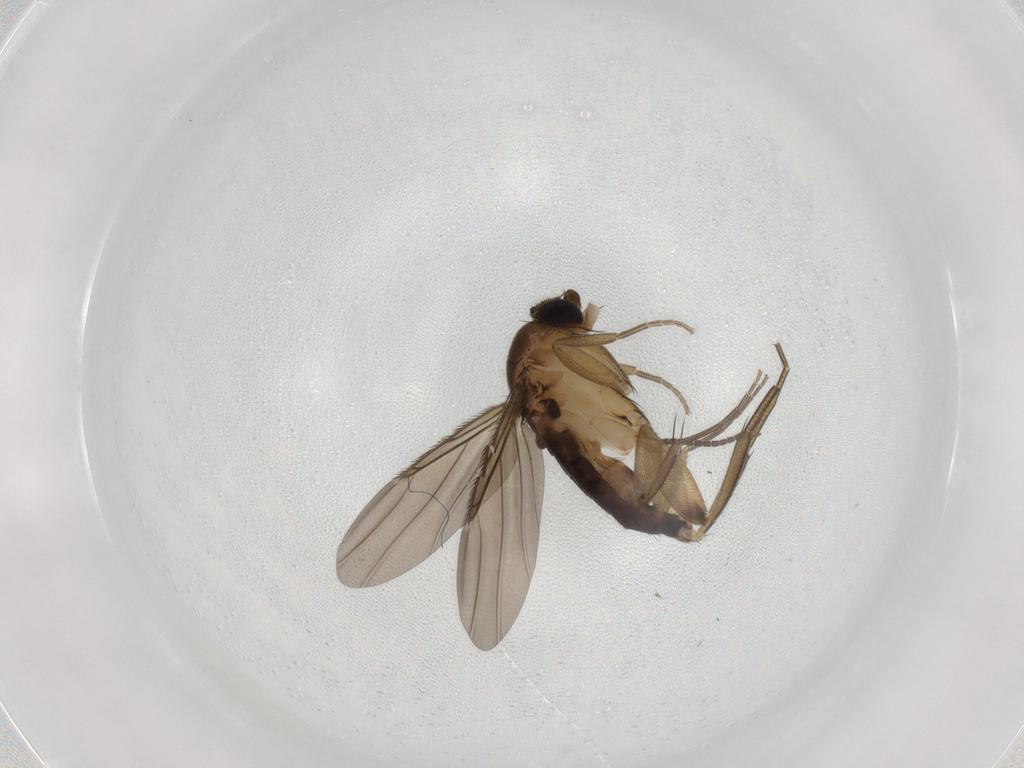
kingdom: Animalia
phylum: Arthropoda
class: Insecta
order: Diptera
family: Phoridae
